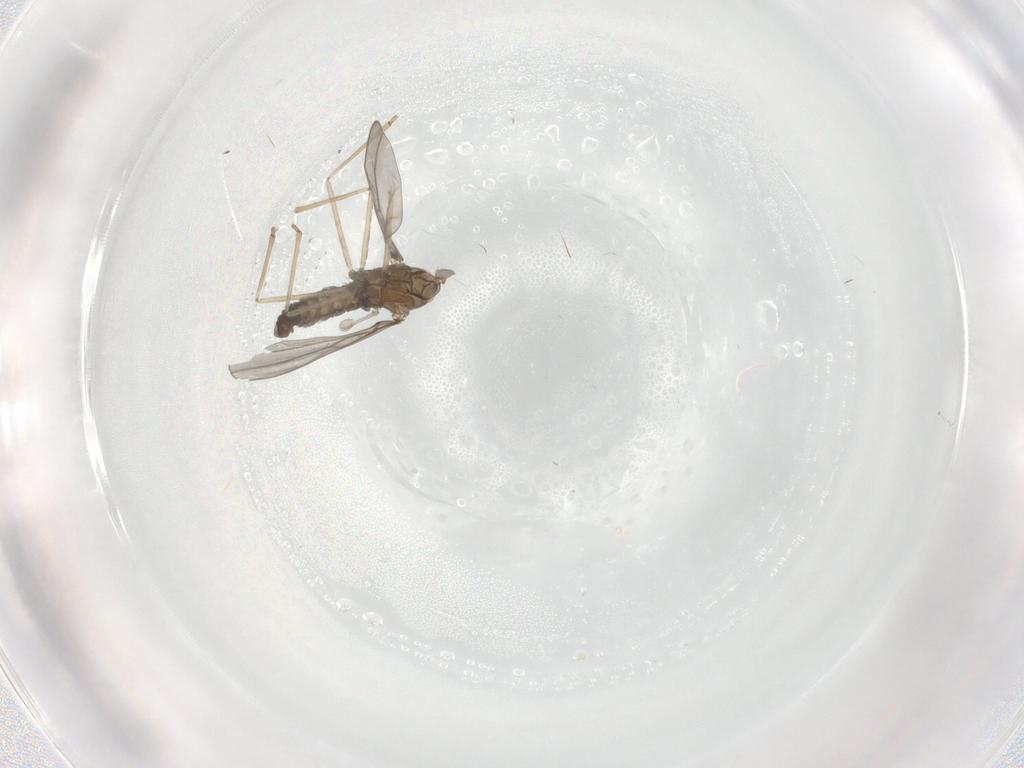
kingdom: Animalia
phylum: Arthropoda
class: Insecta
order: Diptera
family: Cecidomyiidae
